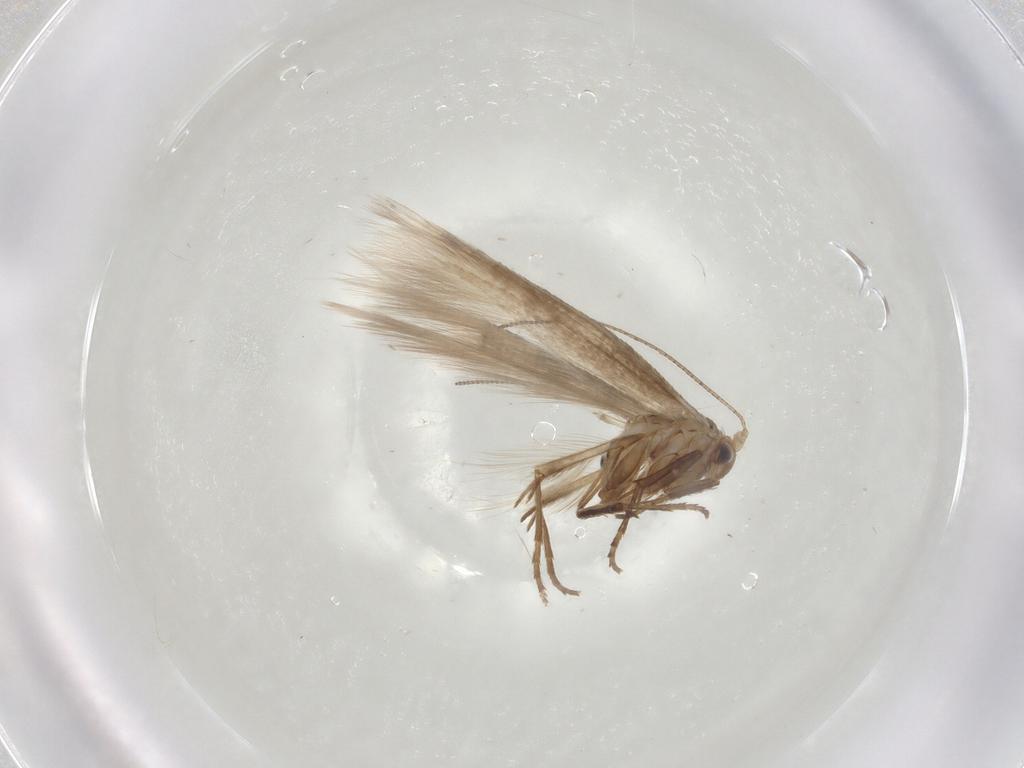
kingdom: Animalia
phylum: Arthropoda
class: Insecta
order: Lepidoptera
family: Bucculatricidae
